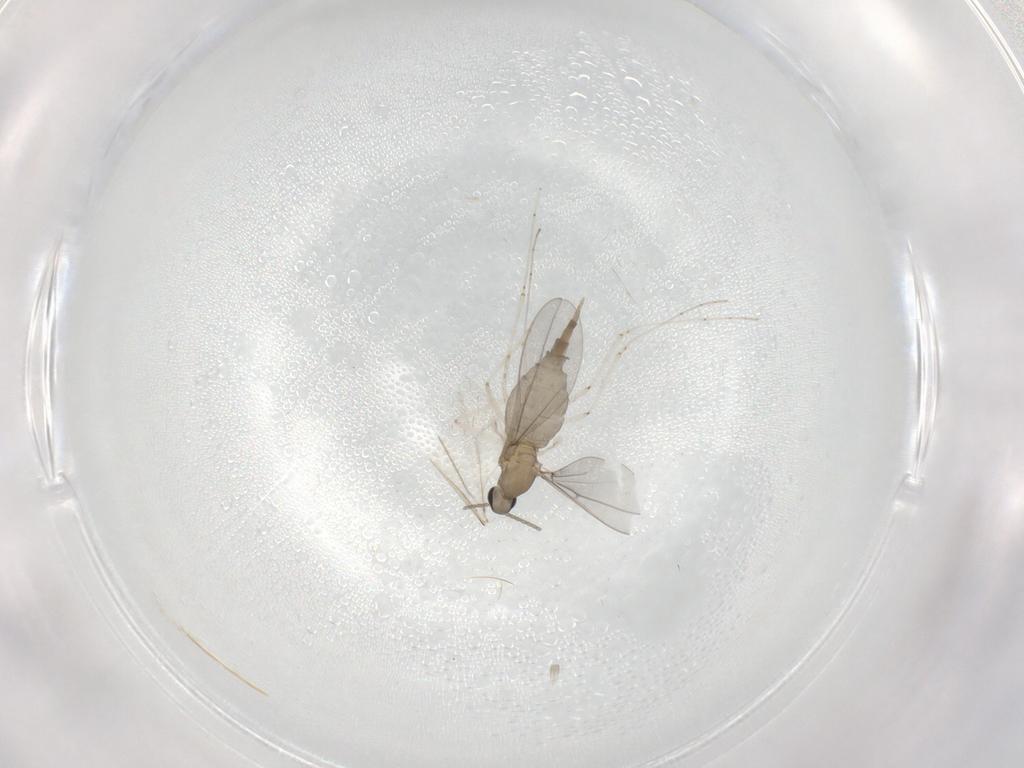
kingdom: Animalia
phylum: Arthropoda
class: Insecta
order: Diptera
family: Cecidomyiidae
